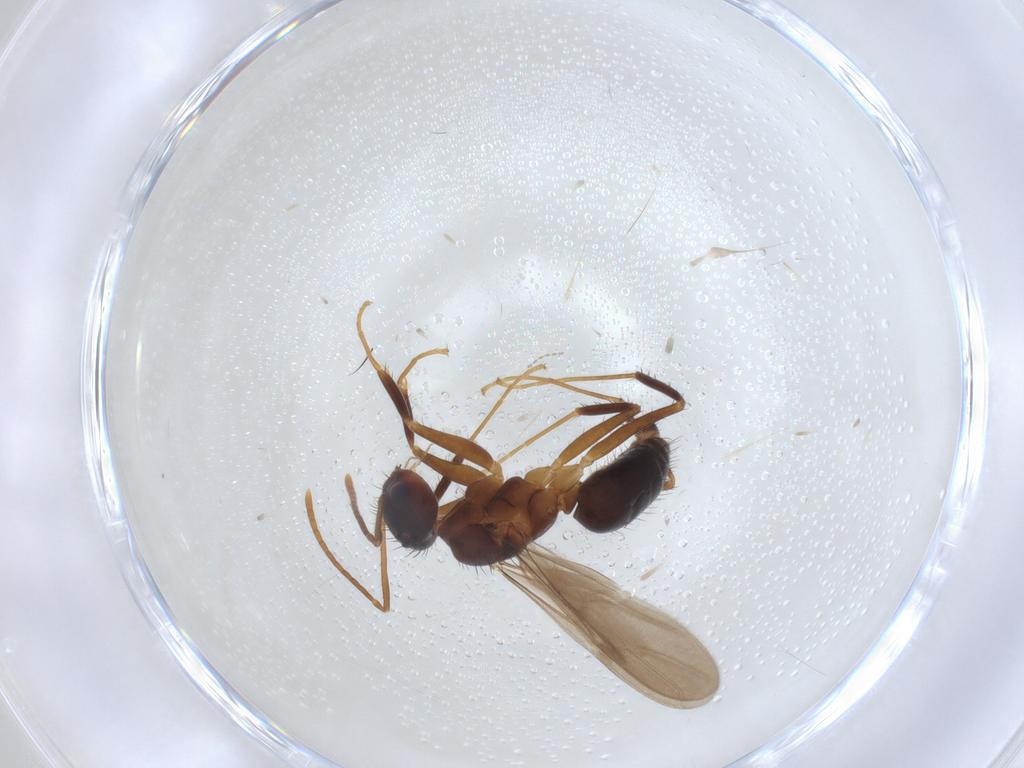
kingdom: Animalia
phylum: Arthropoda
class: Insecta
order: Hymenoptera
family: Formicidae
